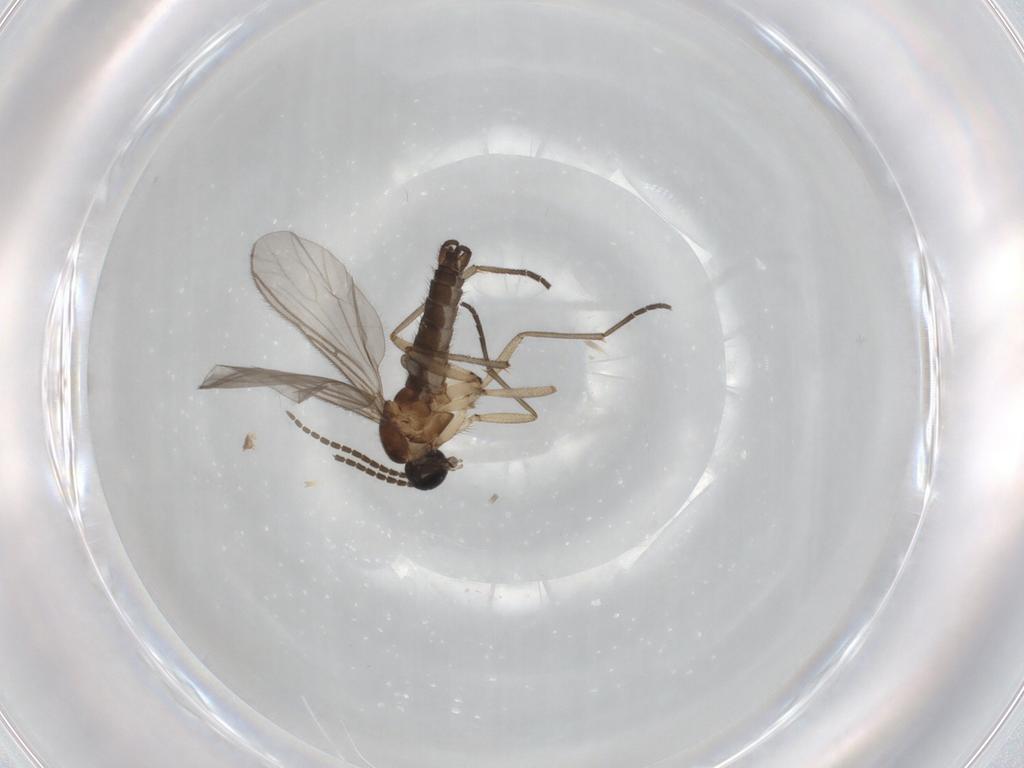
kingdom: Animalia
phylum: Arthropoda
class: Insecta
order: Diptera
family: Sciaridae
